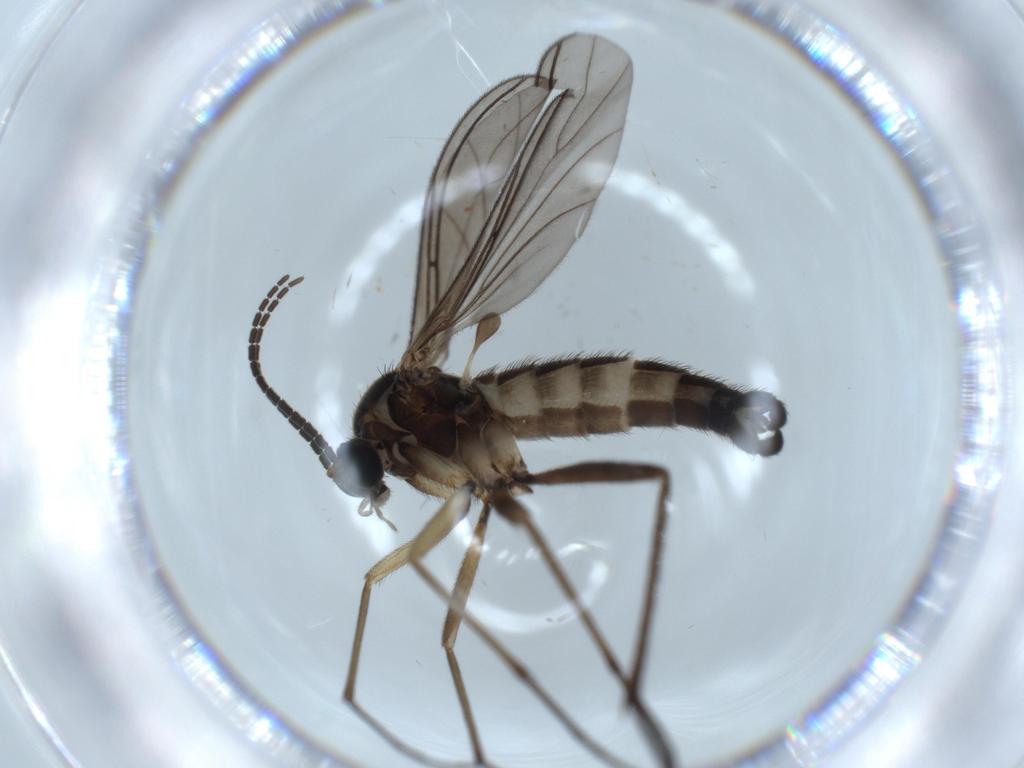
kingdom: Animalia
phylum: Arthropoda
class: Insecta
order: Diptera
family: Sciaridae
